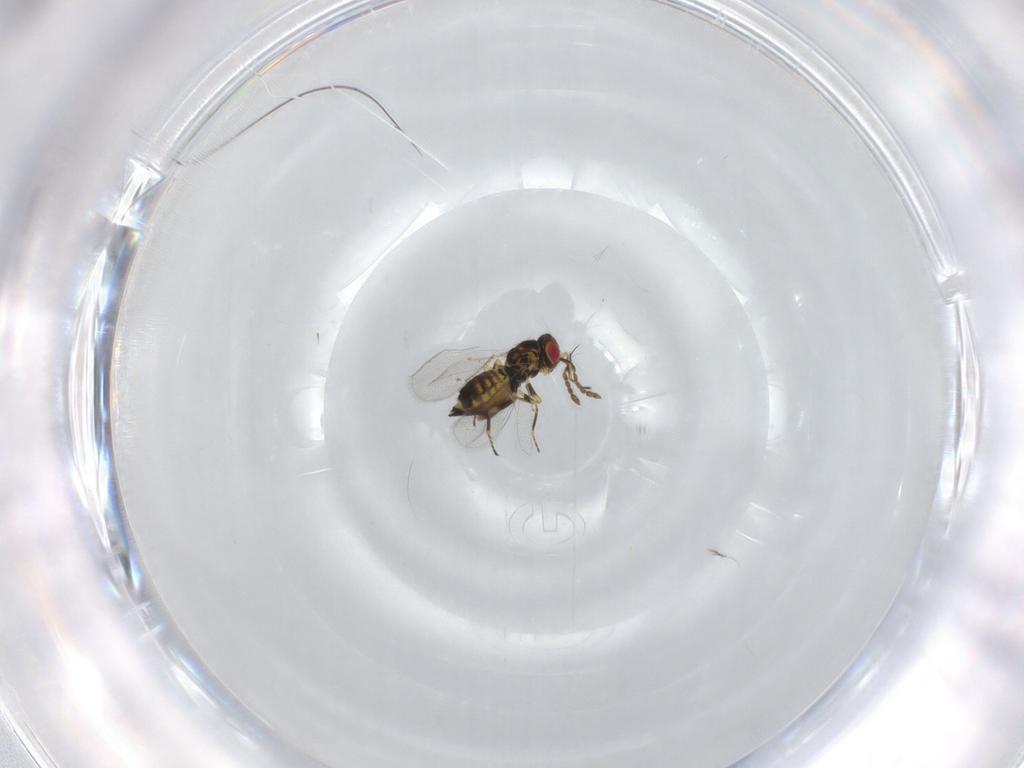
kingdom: Animalia
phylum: Arthropoda
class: Insecta
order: Hymenoptera
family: Eulophidae
